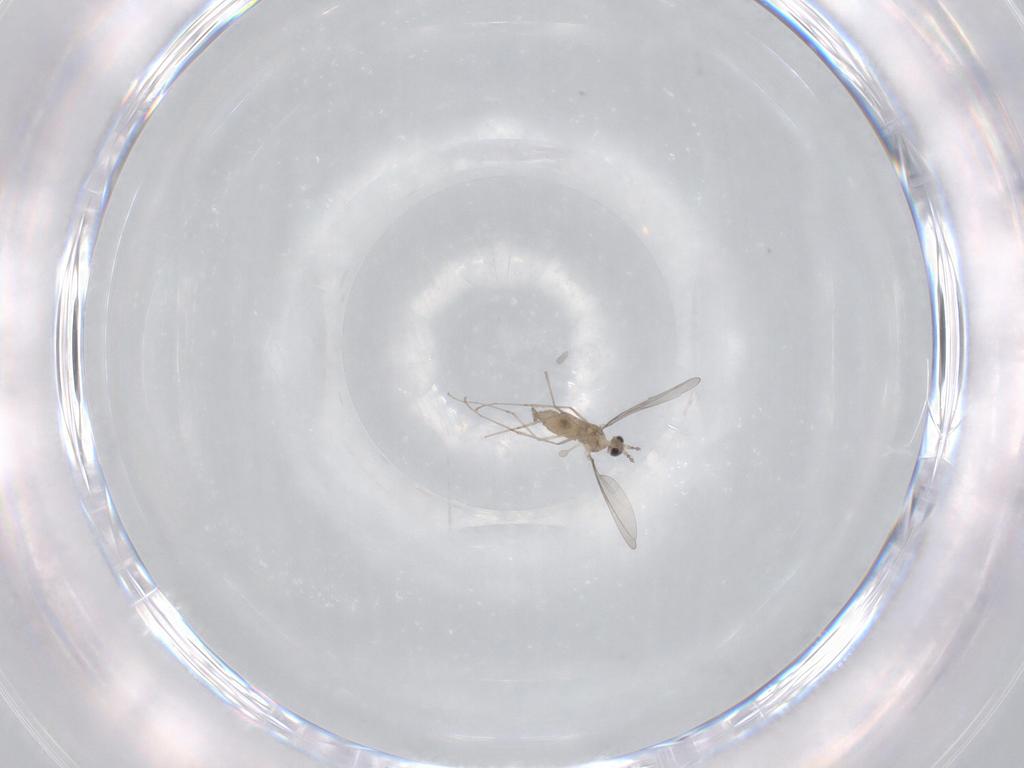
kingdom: Animalia
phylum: Arthropoda
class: Insecta
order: Diptera
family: Cecidomyiidae
